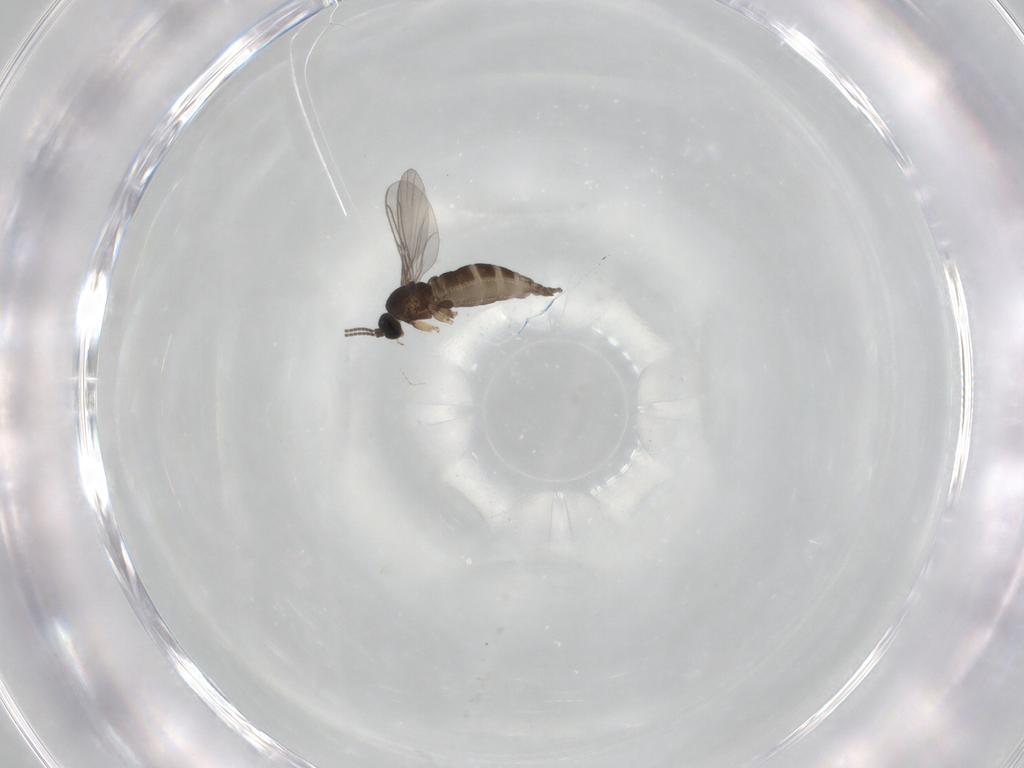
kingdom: Animalia
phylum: Arthropoda
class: Insecta
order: Diptera
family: Sciaridae
